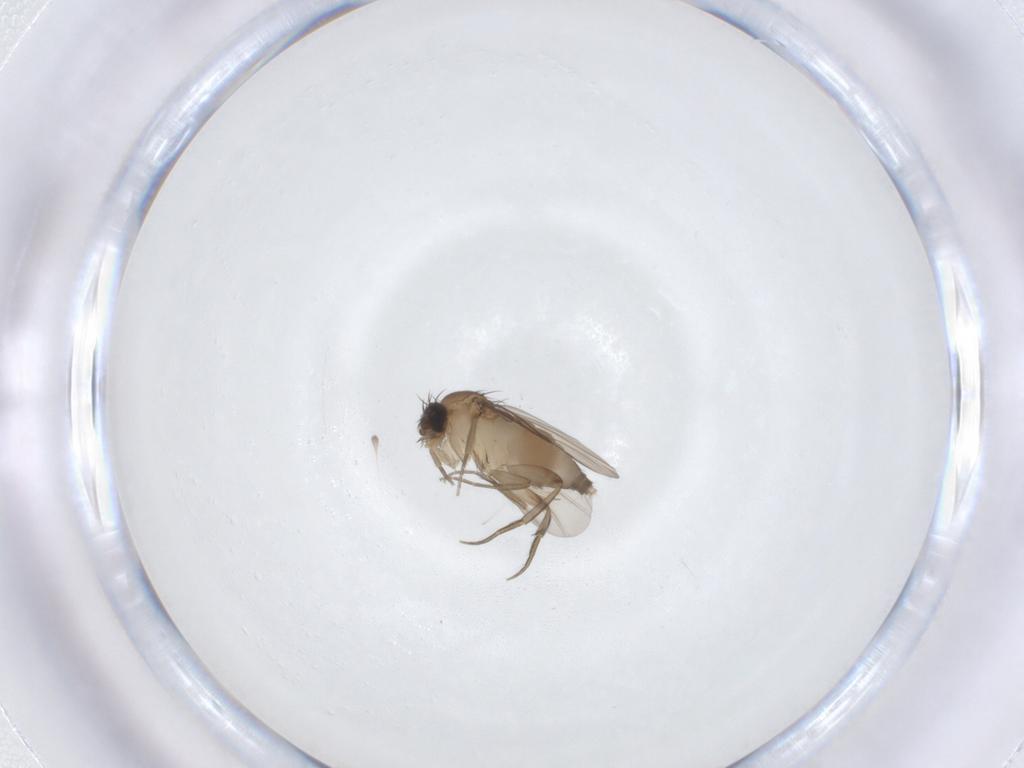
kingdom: Animalia
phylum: Arthropoda
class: Insecta
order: Diptera
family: Phoridae
